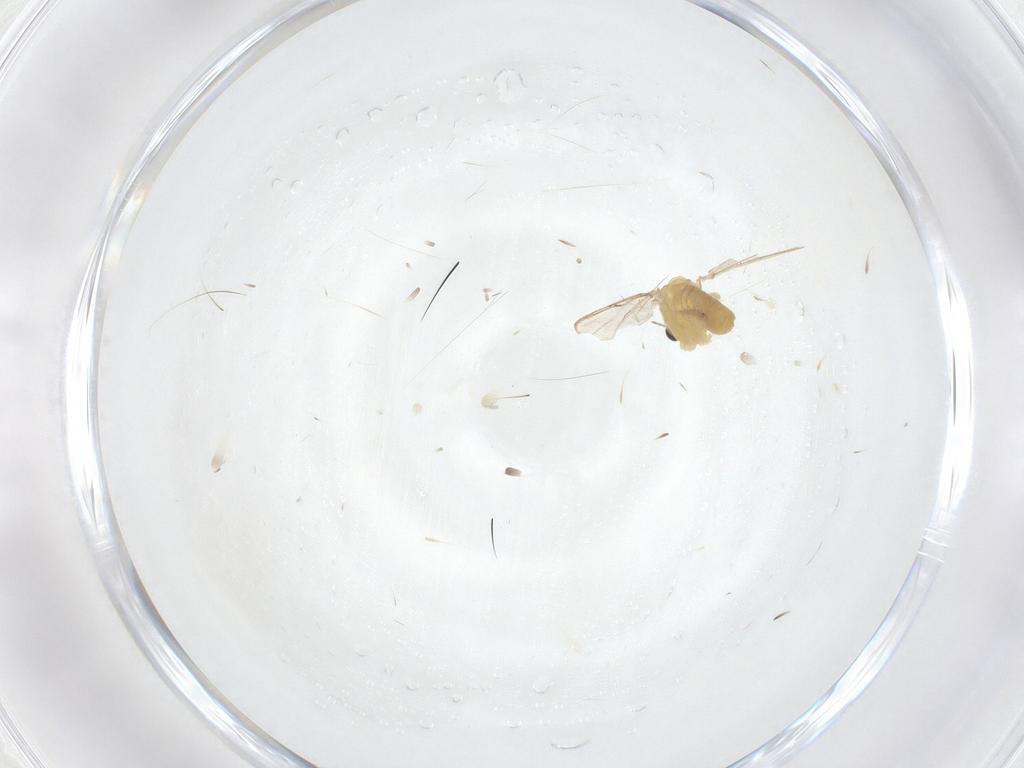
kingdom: Animalia
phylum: Arthropoda
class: Insecta
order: Diptera
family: Chironomidae
